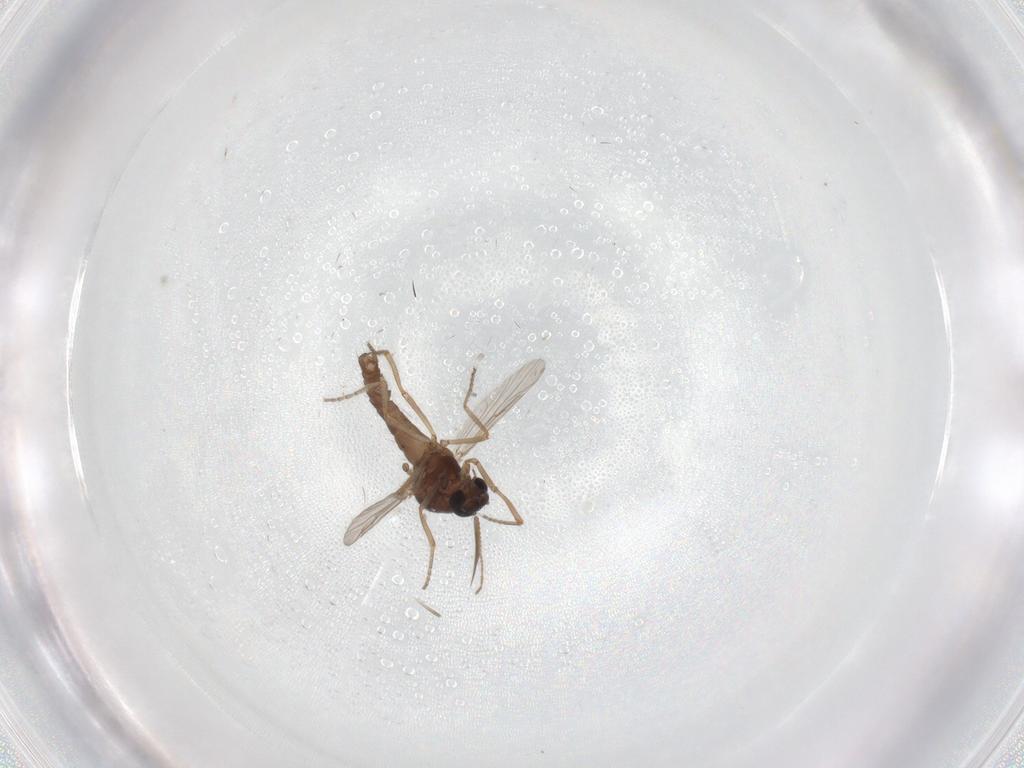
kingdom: Animalia
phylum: Arthropoda
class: Insecta
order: Diptera
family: Ceratopogonidae
